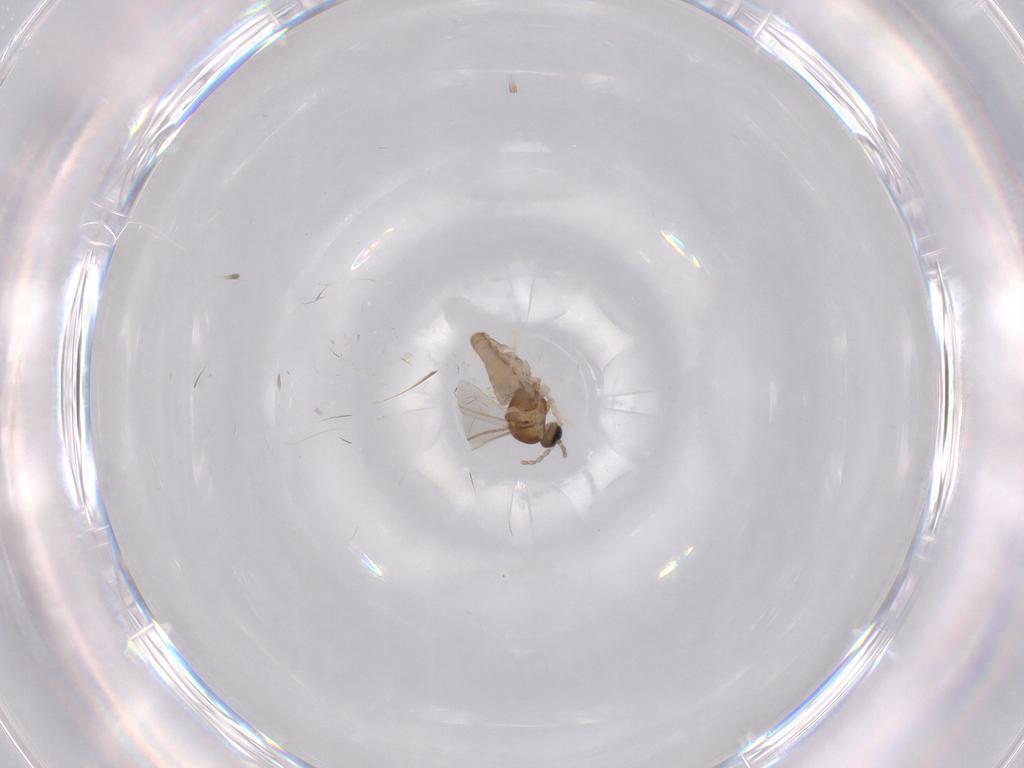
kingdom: Animalia
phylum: Arthropoda
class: Insecta
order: Diptera
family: Cecidomyiidae
